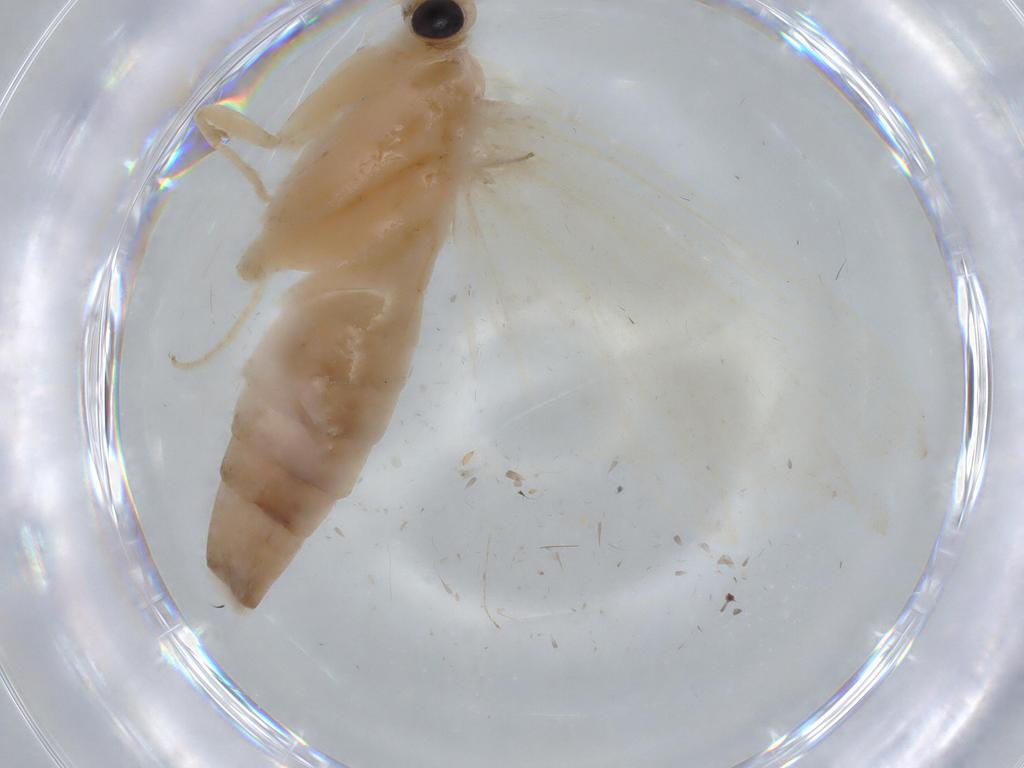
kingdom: Animalia
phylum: Arthropoda
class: Insecta
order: Lepidoptera
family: Crambidae
